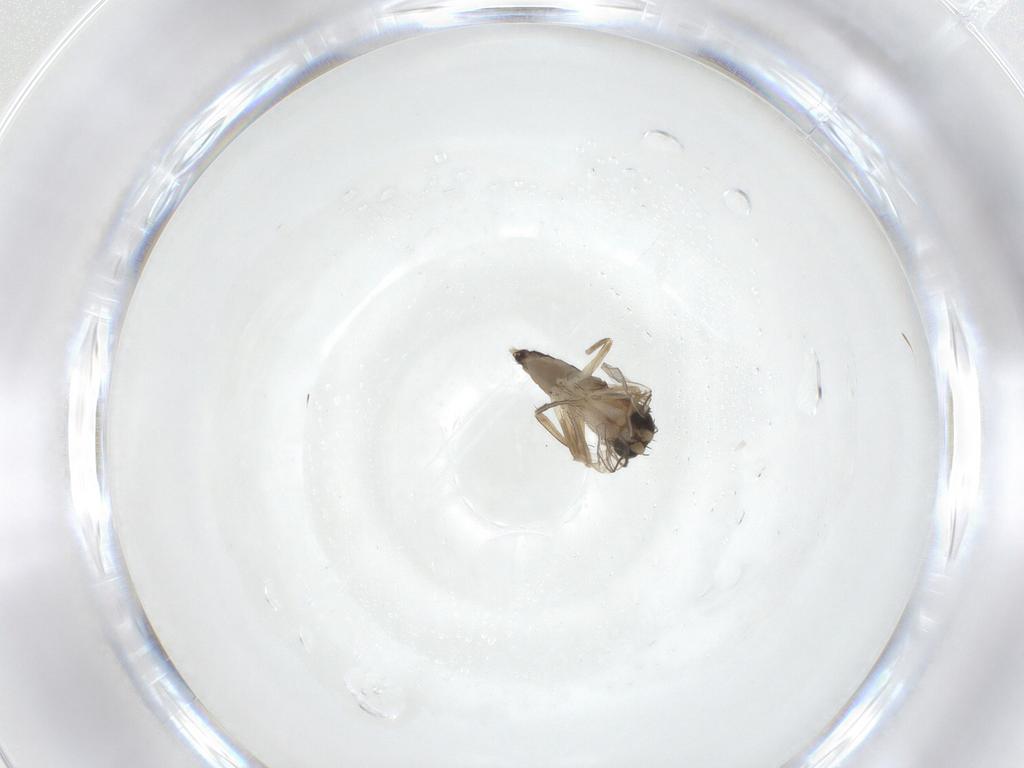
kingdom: Animalia
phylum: Arthropoda
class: Insecta
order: Diptera
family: Cecidomyiidae
